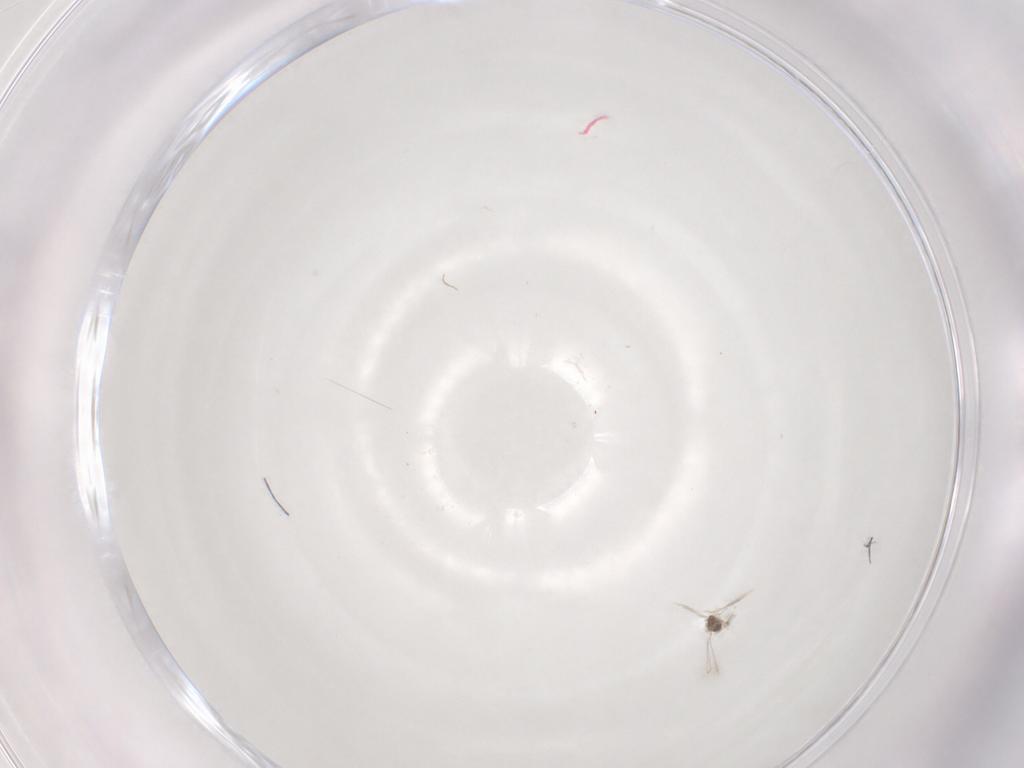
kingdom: Animalia
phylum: Arthropoda
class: Insecta
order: Hymenoptera
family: Mymaridae
